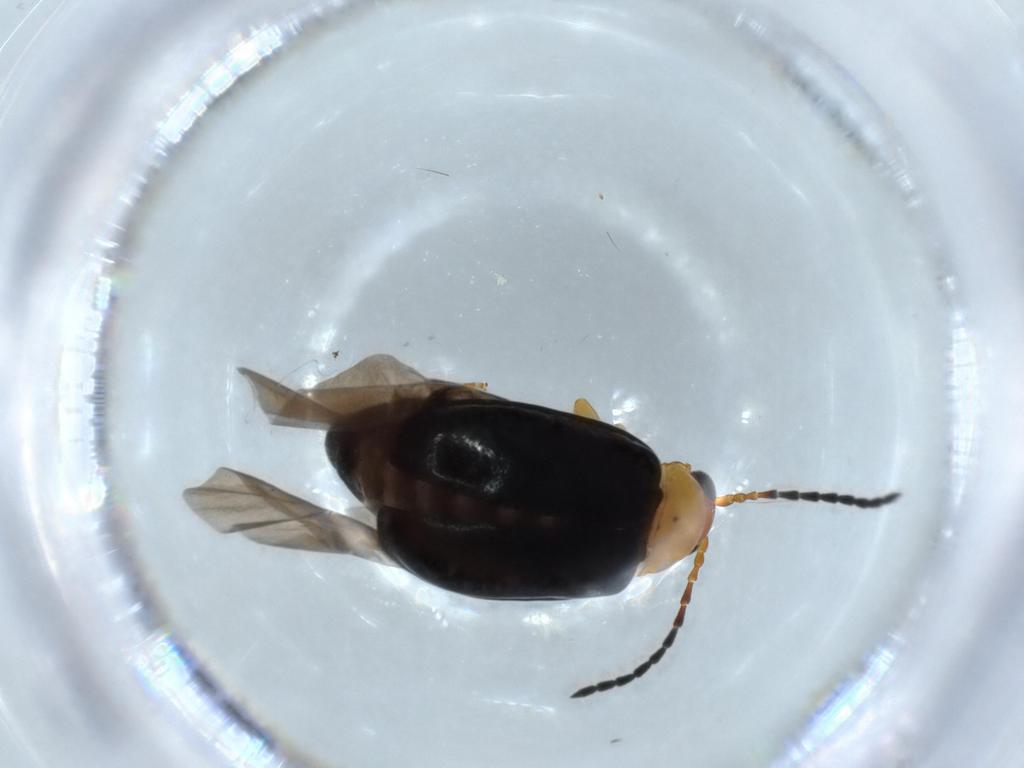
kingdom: Animalia
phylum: Arthropoda
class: Insecta
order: Coleoptera
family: Chrysomelidae
